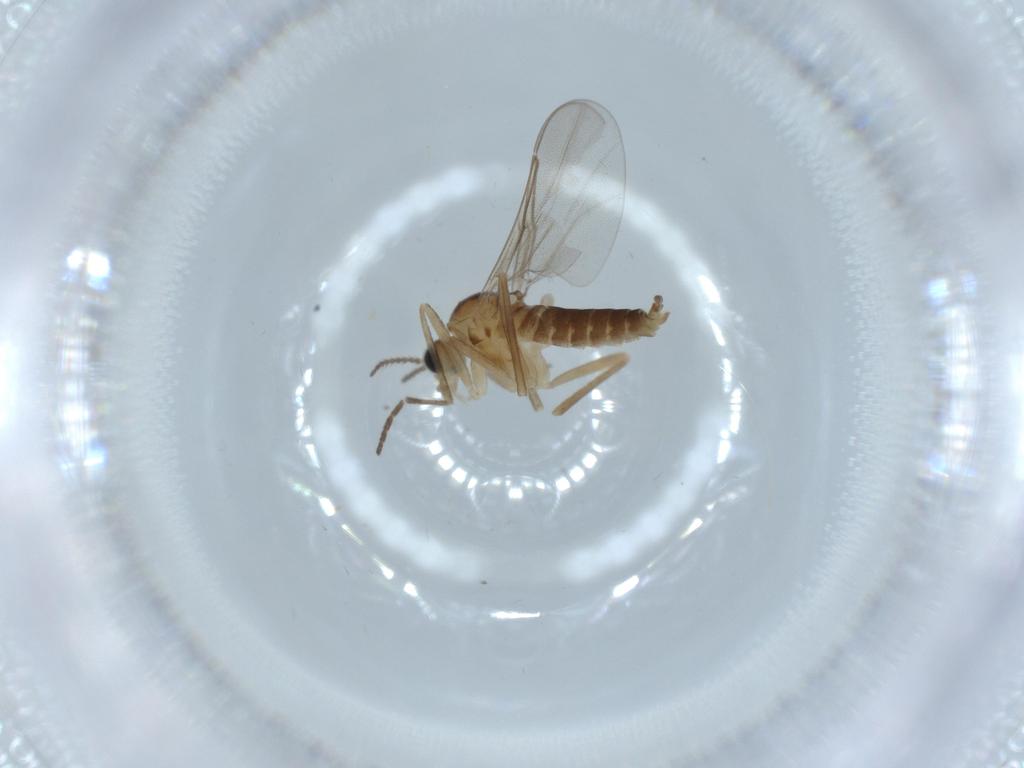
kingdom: Animalia
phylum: Arthropoda
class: Insecta
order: Diptera
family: Cecidomyiidae
